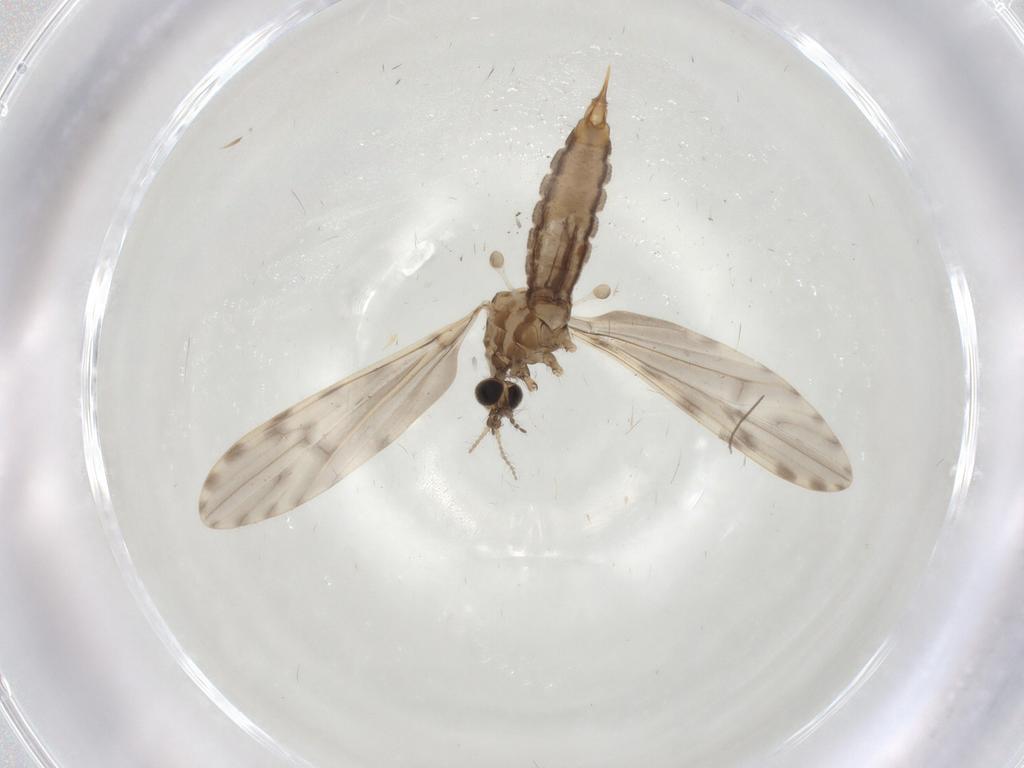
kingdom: Animalia
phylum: Arthropoda
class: Insecta
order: Diptera
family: Limoniidae
